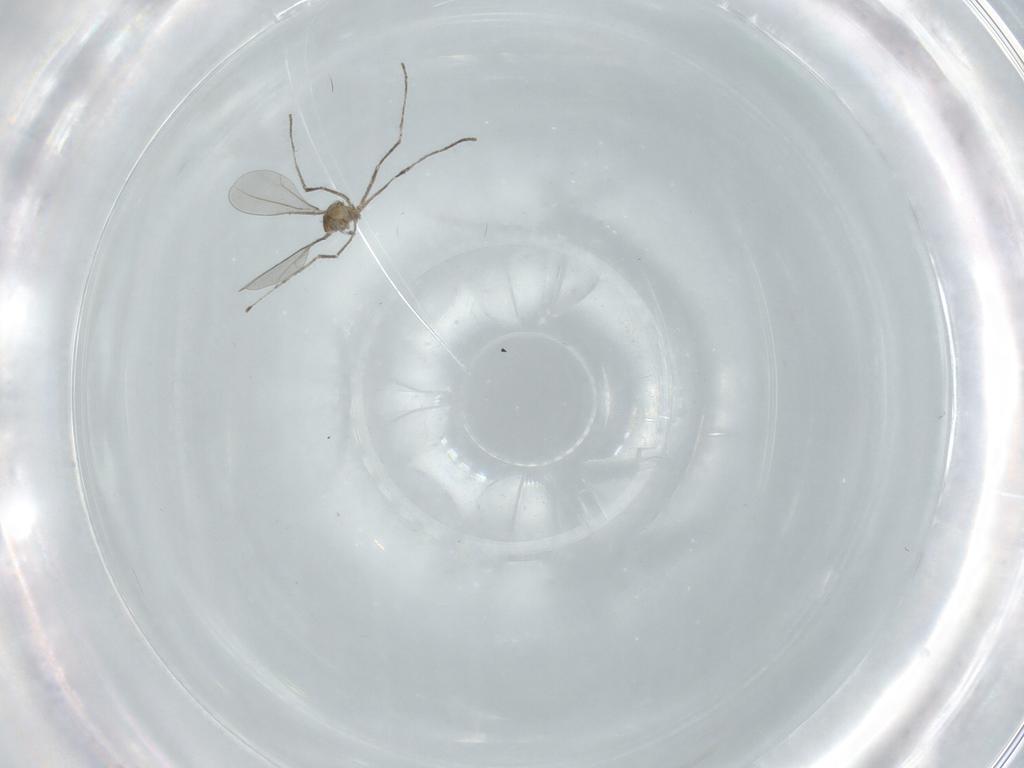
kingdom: Animalia
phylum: Arthropoda
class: Insecta
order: Diptera
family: Cecidomyiidae
